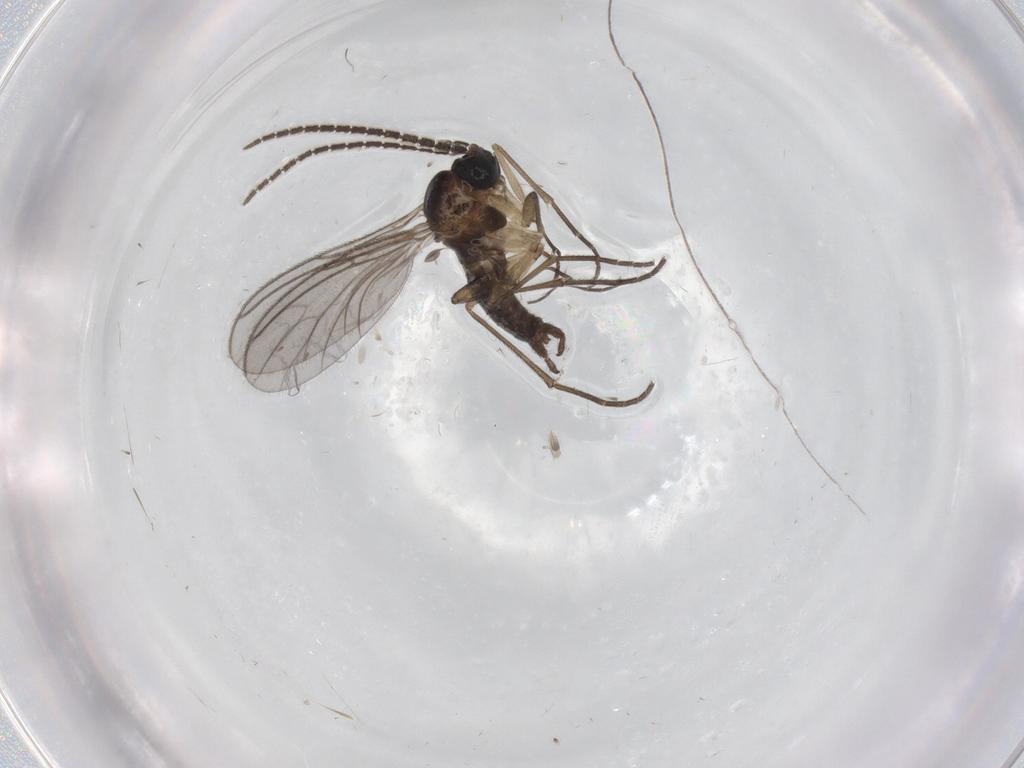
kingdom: Animalia
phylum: Arthropoda
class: Insecta
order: Diptera
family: Sciaridae
